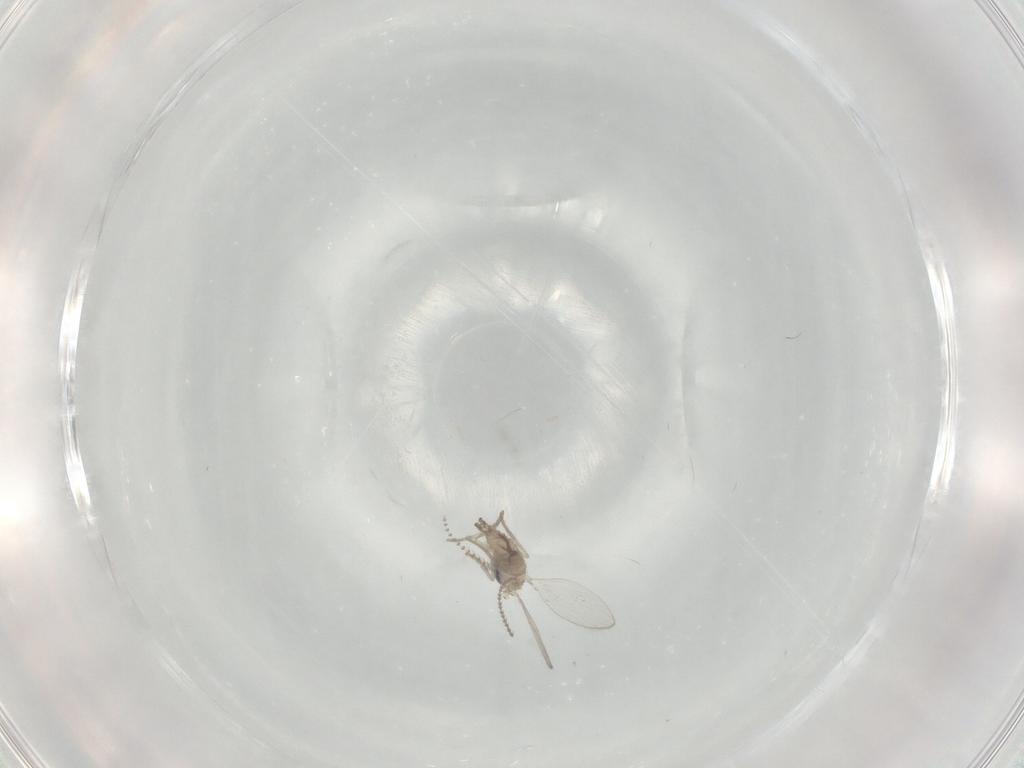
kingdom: Animalia
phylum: Arthropoda
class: Insecta
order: Diptera
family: Psychodidae
